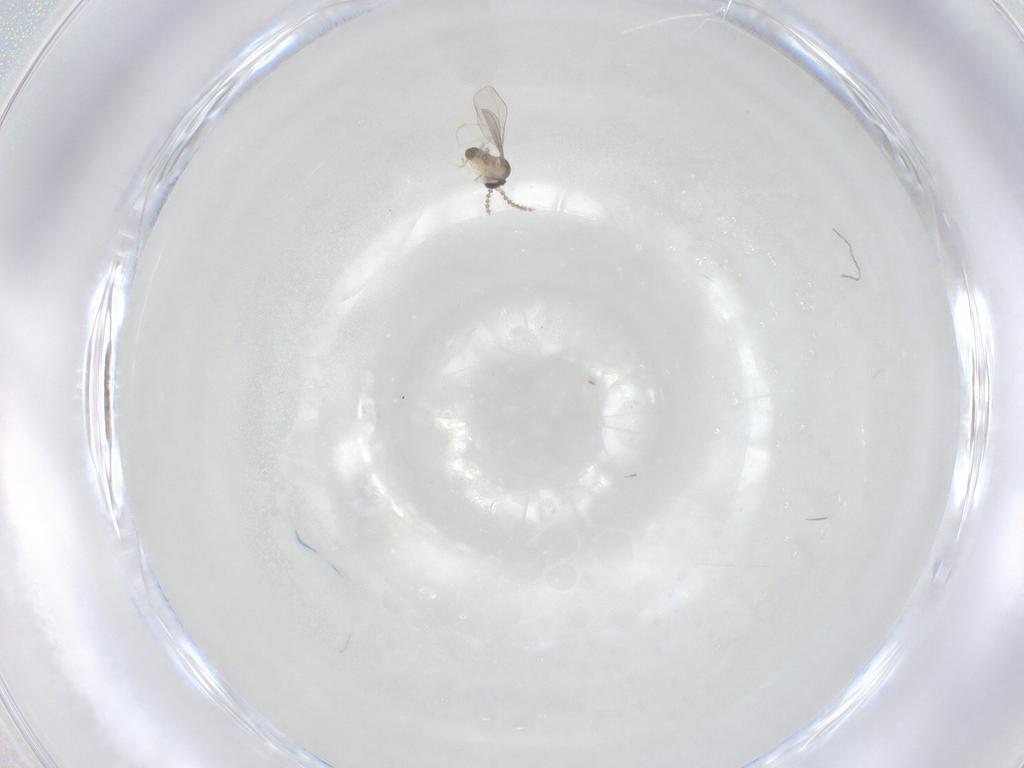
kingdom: Animalia
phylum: Arthropoda
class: Insecta
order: Diptera
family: Cecidomyiidae
